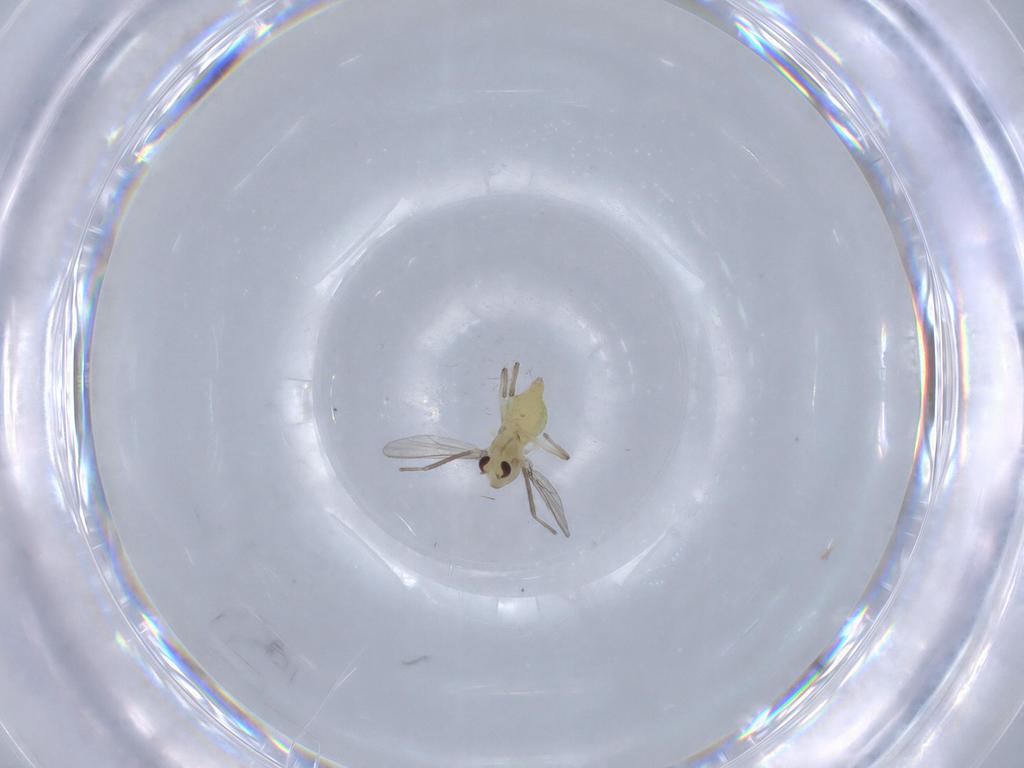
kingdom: Animalia
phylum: Arthropoda
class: Insecta
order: Diptera
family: Chironomidae
